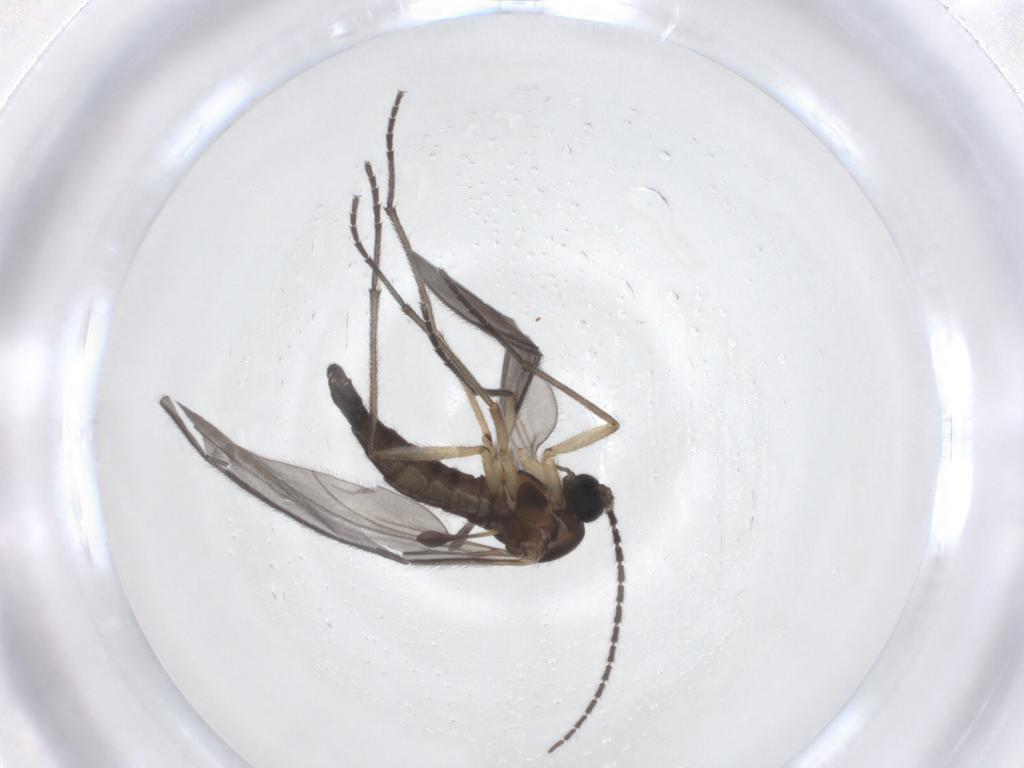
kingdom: Animalia
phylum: Arthropoda
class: Insecta
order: Diptera
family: Sciaridae
